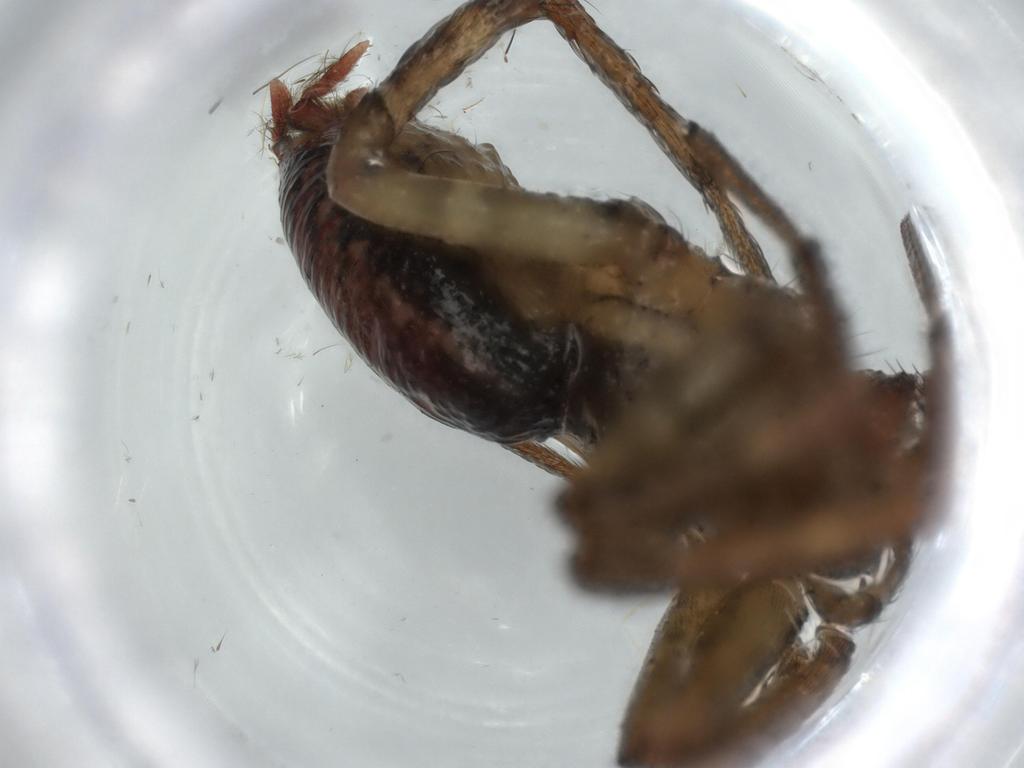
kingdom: Animalia
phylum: Arthropoda
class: Arachnida
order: Araneae
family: Agelenidae
